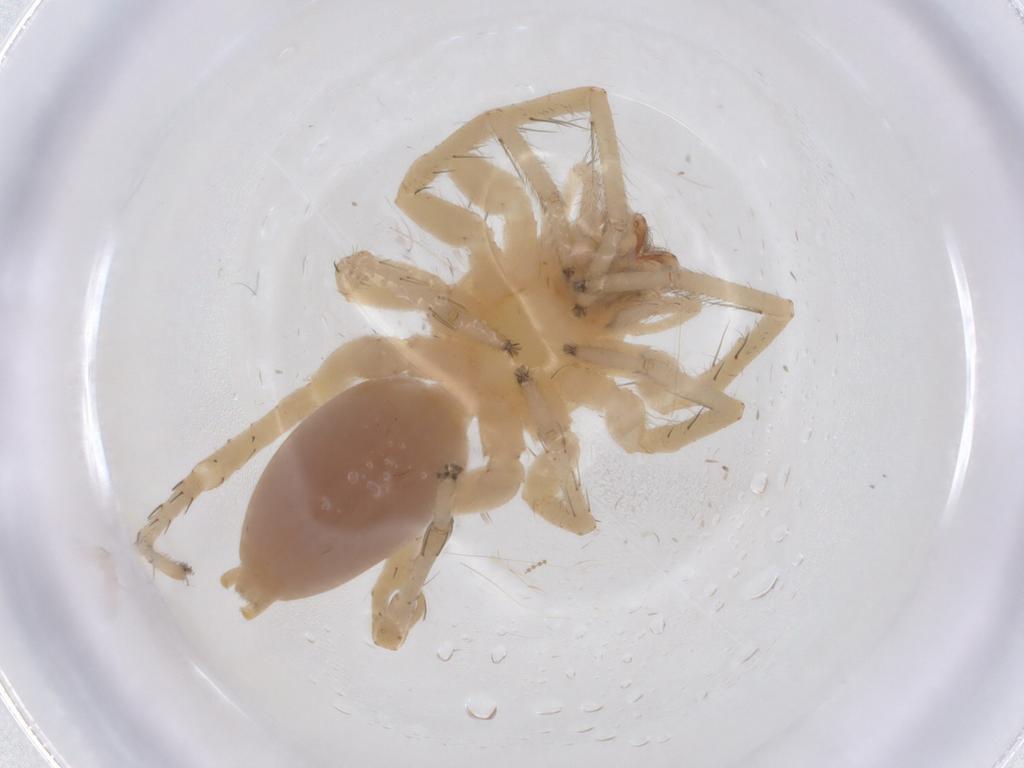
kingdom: Animalia
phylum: Arthropoda
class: Arachnida
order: Araneae
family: Anyphaenidae
